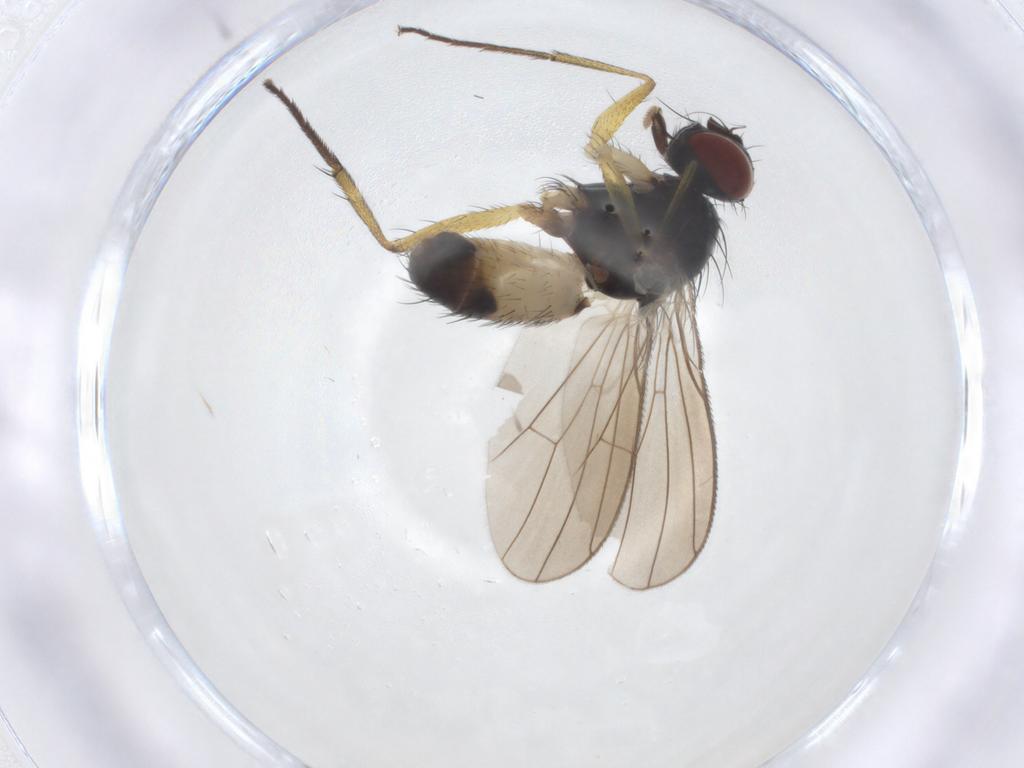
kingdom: Animalia
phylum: Arthropoda
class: Insecta
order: Diptera
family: Muscidae
